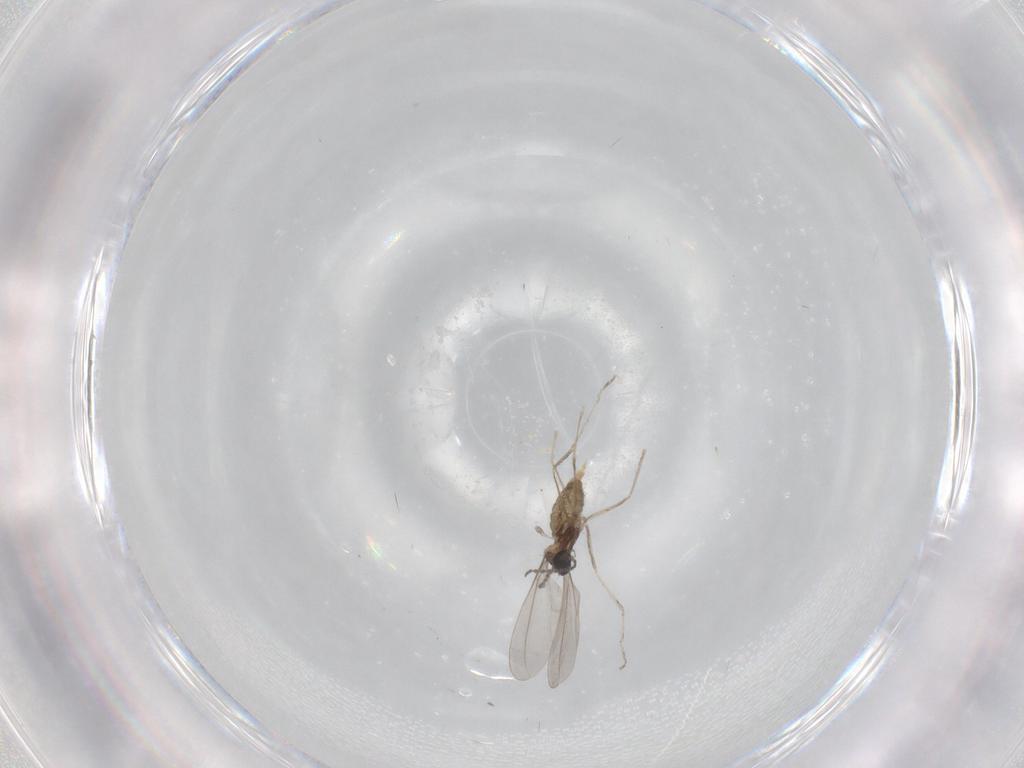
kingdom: Animalia
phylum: Arthropoda
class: Insecta
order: Diptera
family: Cecidomyiidae
